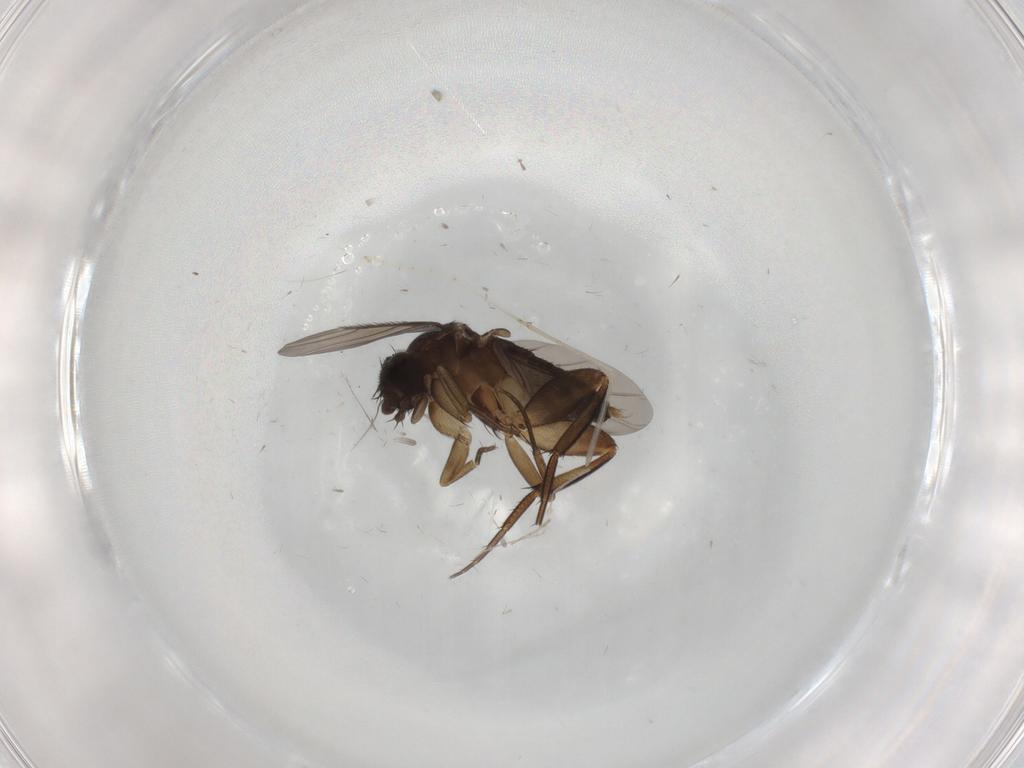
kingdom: Animalia
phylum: Arthropoda
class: Insecta
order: Diptera
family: Phoridae
